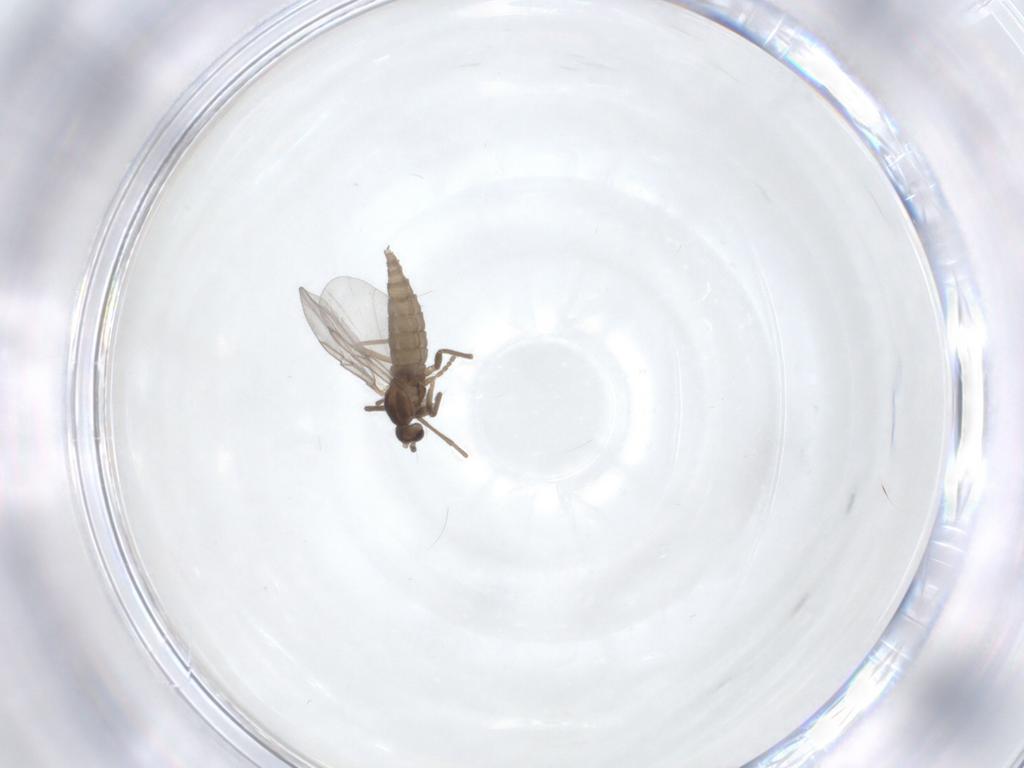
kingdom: Animalia
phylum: Arthropoda
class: Insecta
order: Diptera
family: Cecidomyiidae
